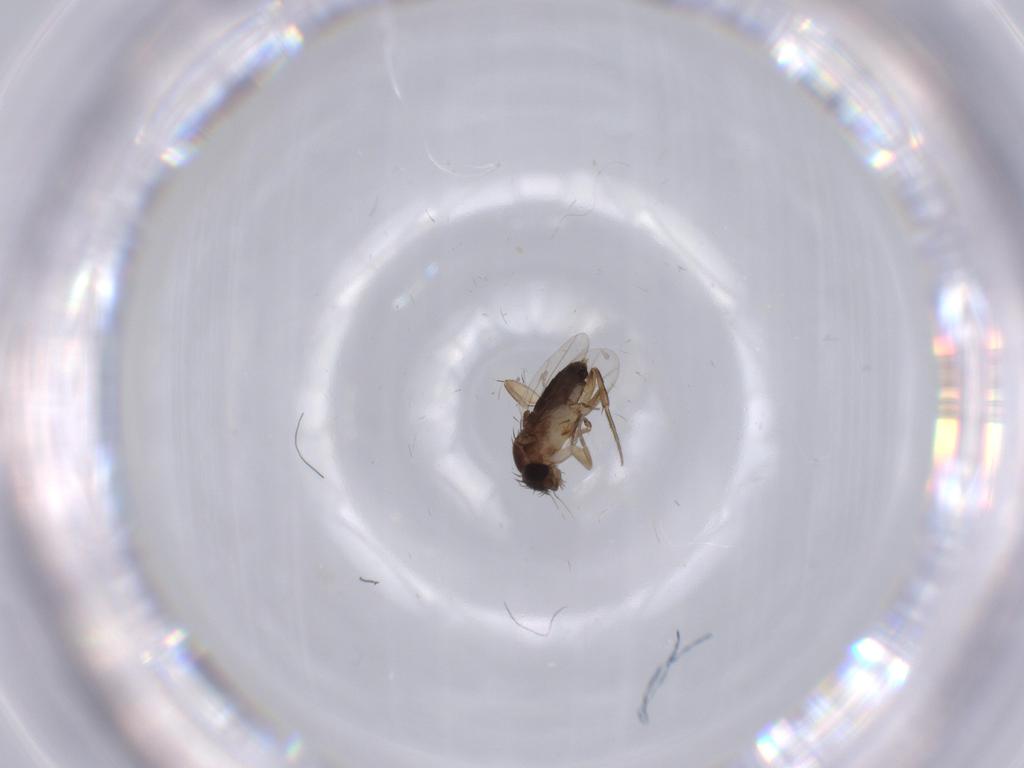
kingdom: Animalia
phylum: Arthropoda
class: Insecta
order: Diptera
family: Phoridae
